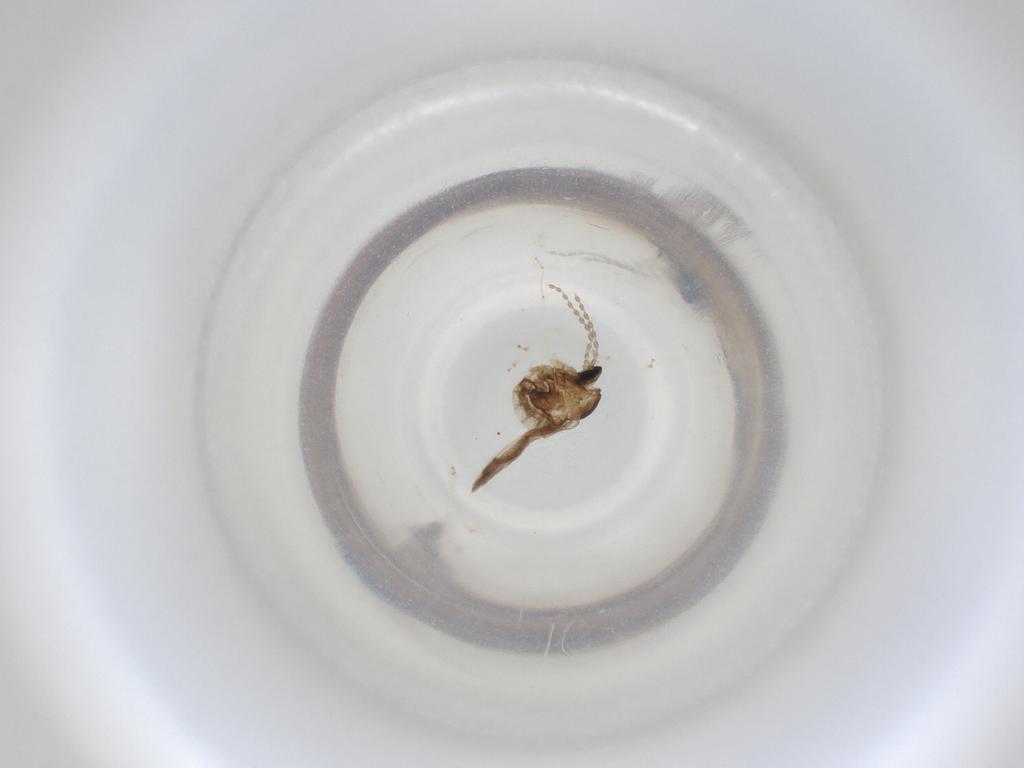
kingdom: Animalia
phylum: Arthropoda
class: Insecta
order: Diptera
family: Cecidomyiidae
